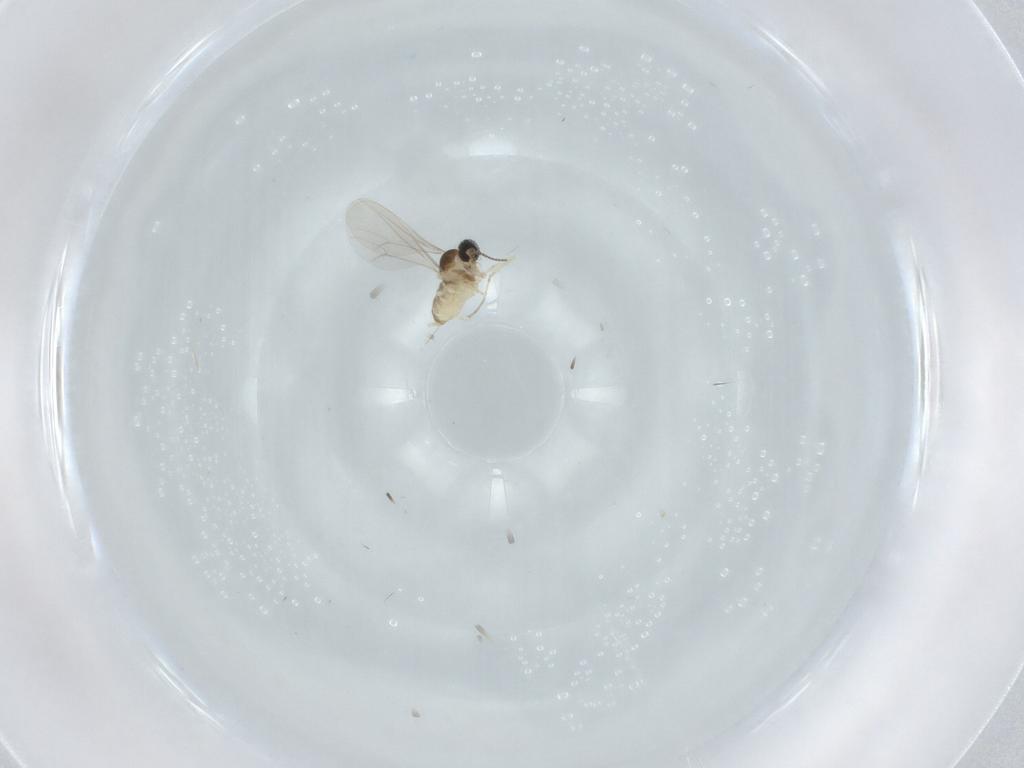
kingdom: Animalia
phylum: Arthropoda
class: Insecta
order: Diptera
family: Cecidomyiidae
